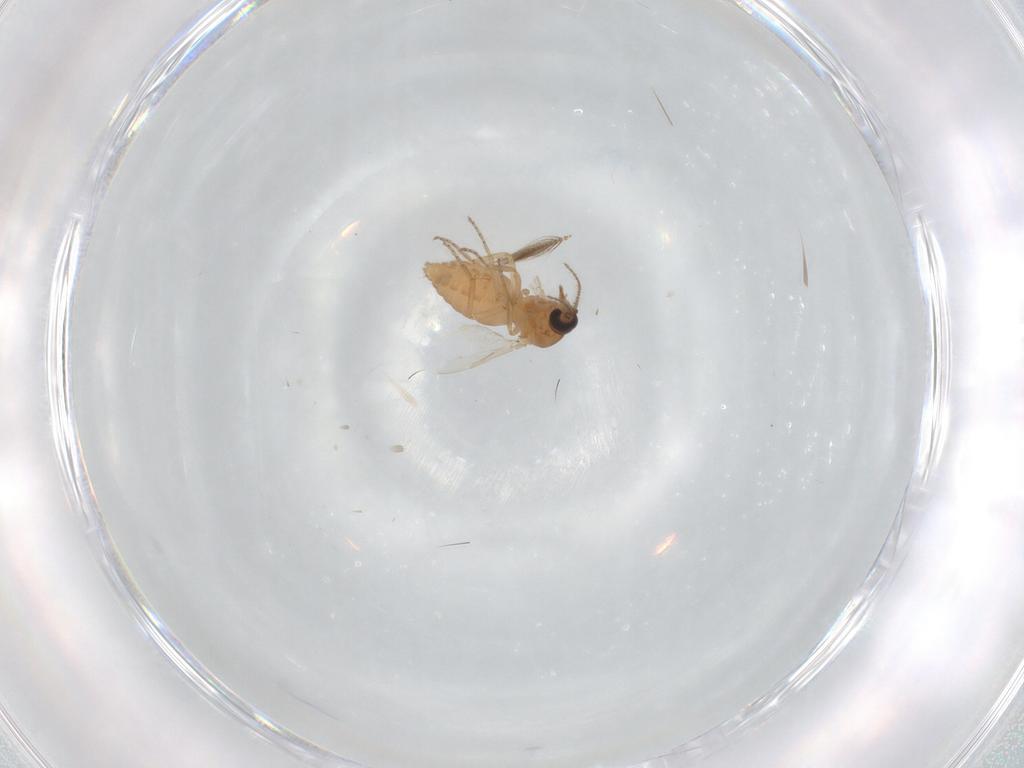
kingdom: Animalia
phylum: Arthropoda
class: Insecta
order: Diptera
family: Ceratopogonidae
